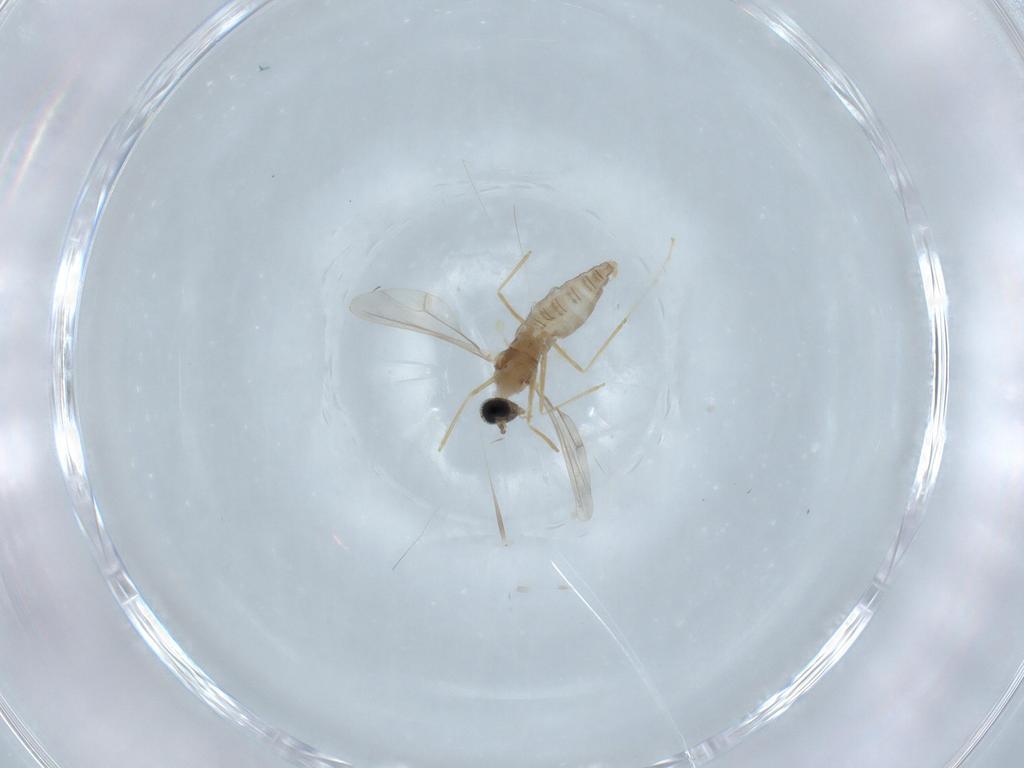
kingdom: Animalia
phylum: Arthropoda
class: Insecta
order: Diptera
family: Cecidomyiidae
